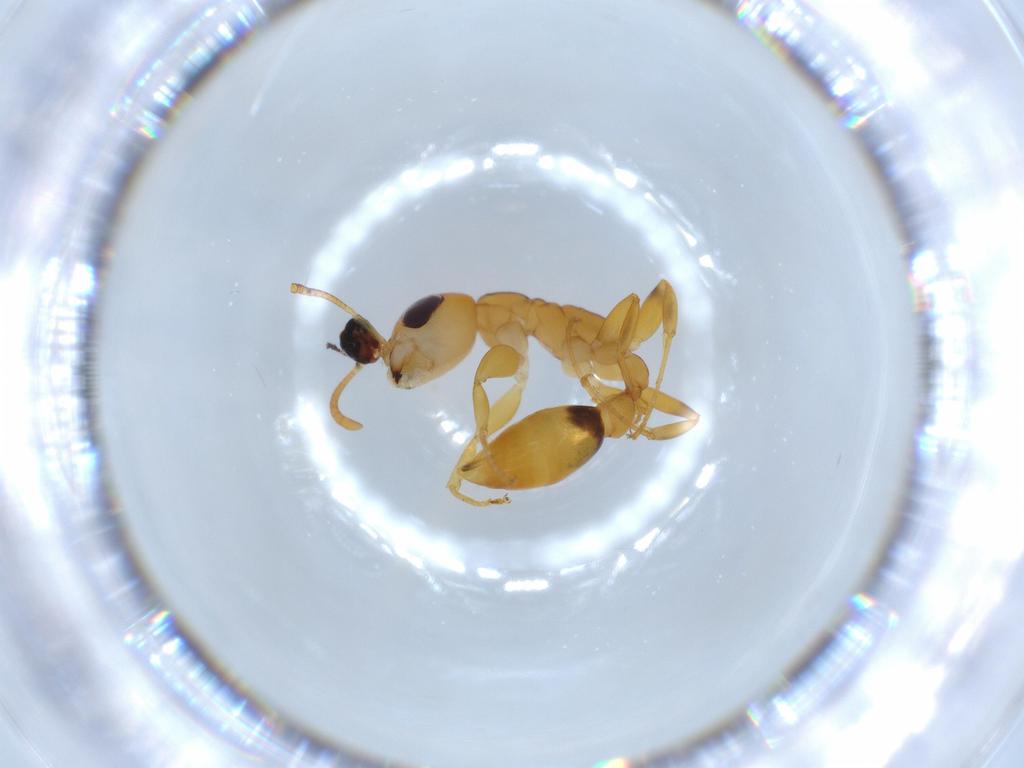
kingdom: Animalia
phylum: Arthropoda
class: Insecta
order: Hymenoptera
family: Formicidae
